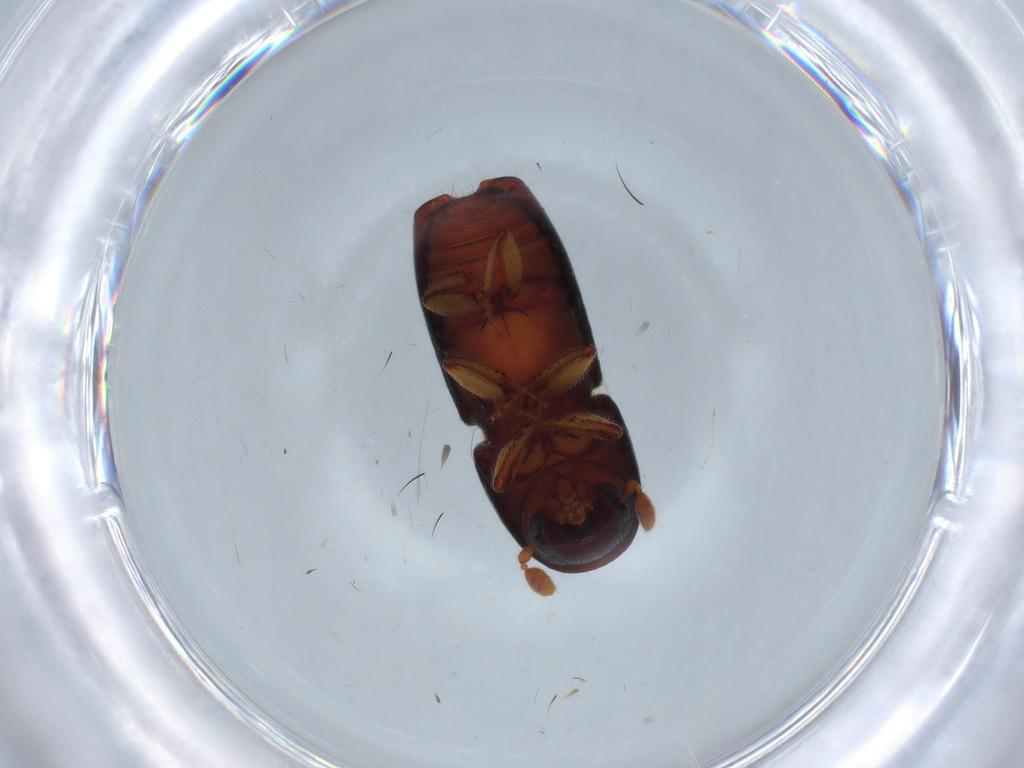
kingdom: Animalia
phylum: Arthropoda
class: Insecta
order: Coleoptera
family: Curculionidae
